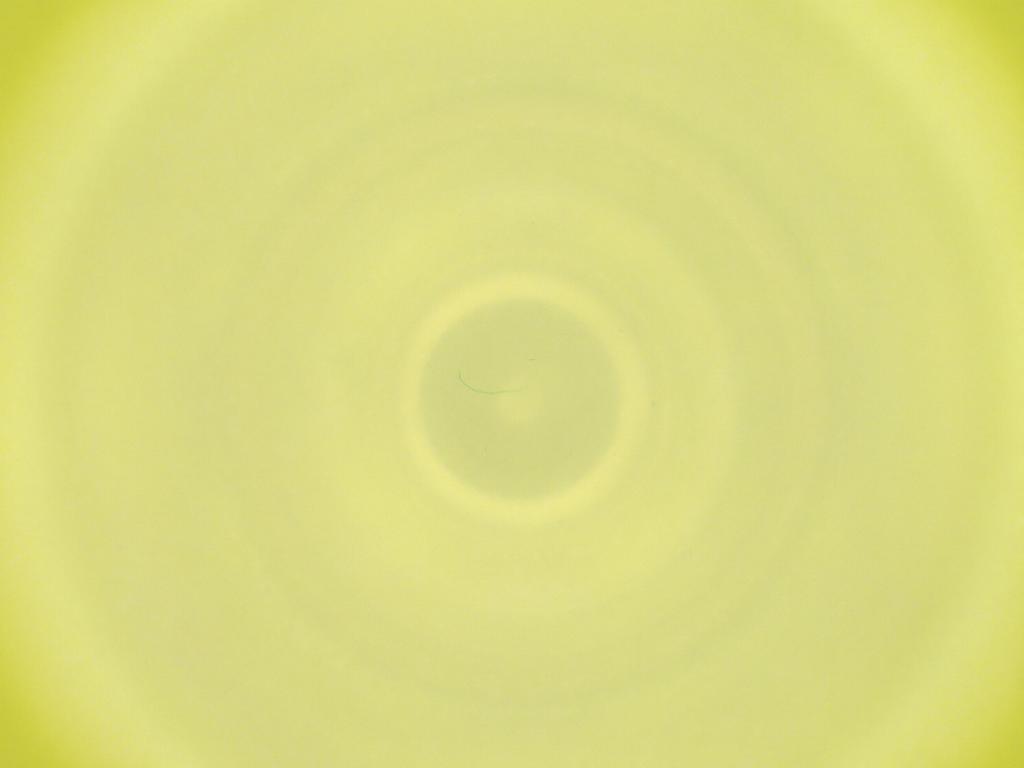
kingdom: Animalia
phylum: Arthropoda
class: Insecta
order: Diptera
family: Cecidomyiidae
